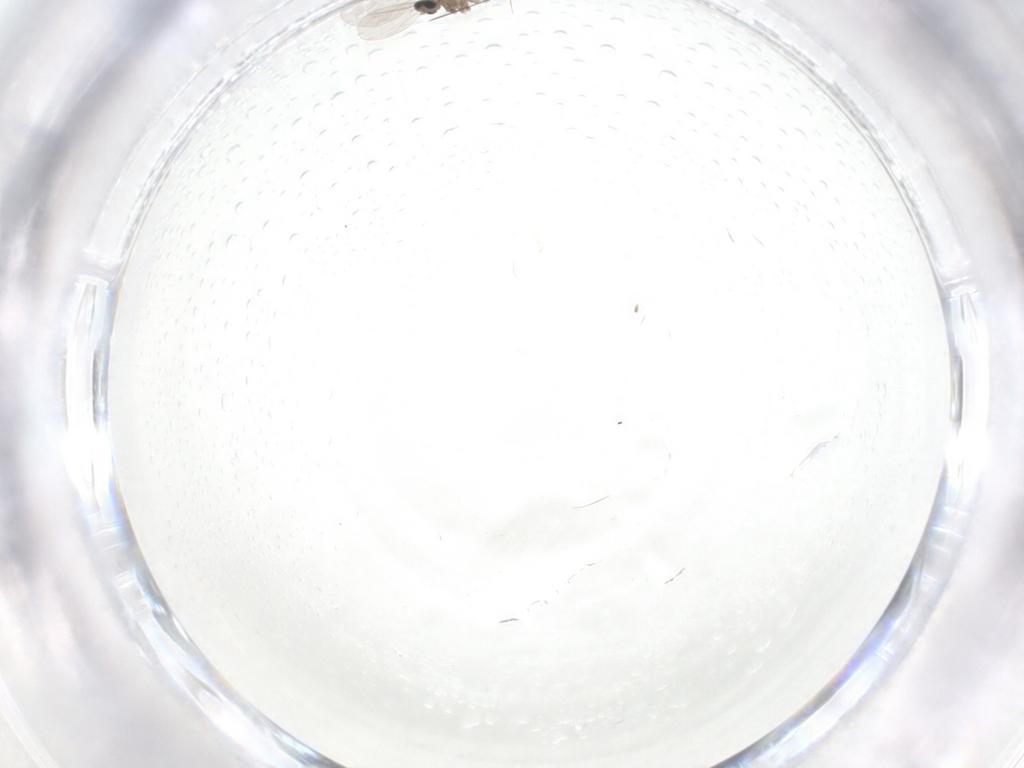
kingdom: Animalia
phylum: Arthropoda
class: Insecta
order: Diptera
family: Cecidomyiidae
